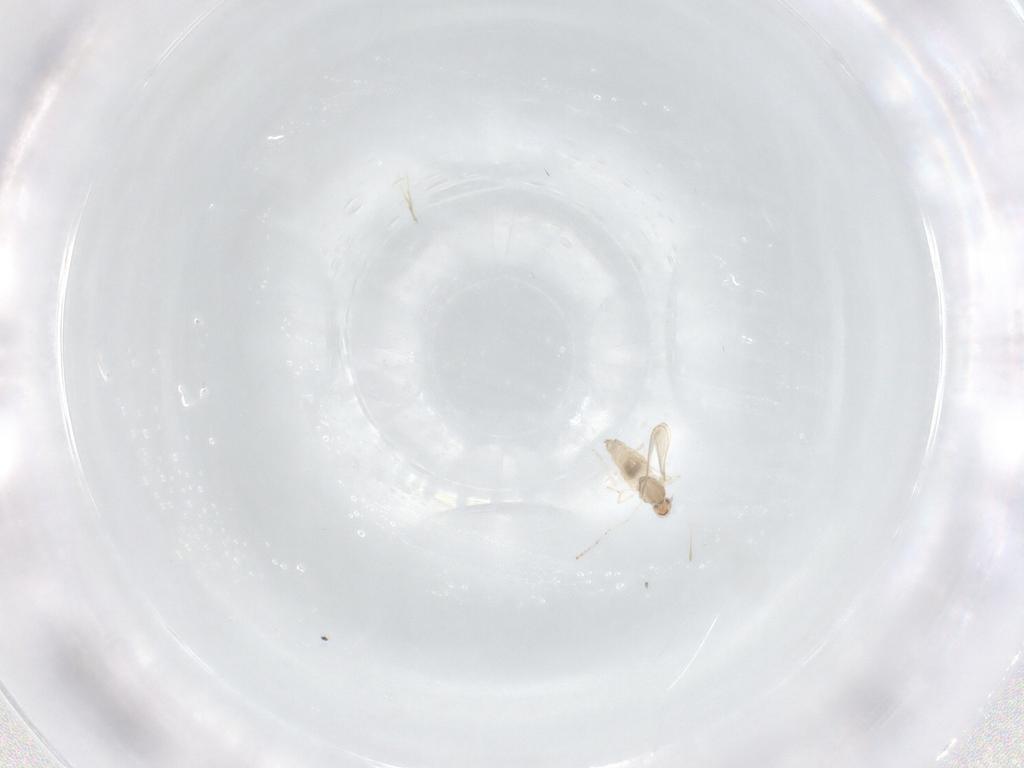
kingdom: Animalia
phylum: Arthropoda
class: Insecta
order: Diptera
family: Cecidomyiidae
